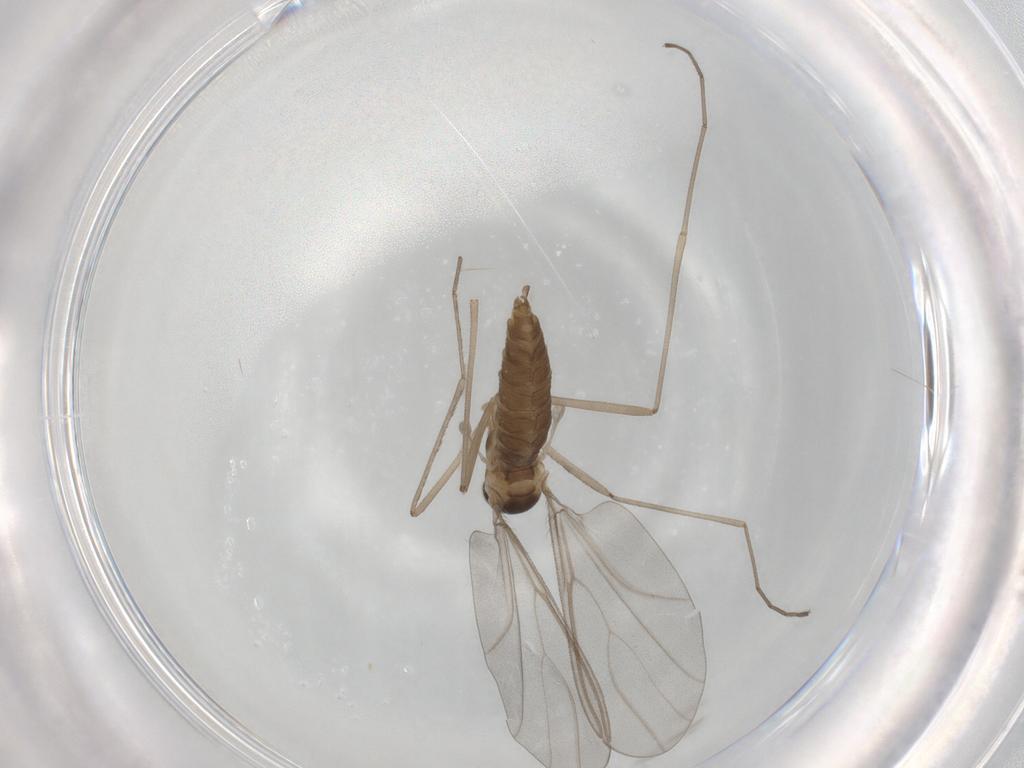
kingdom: Animalia
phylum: Arthropoda
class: Insecta
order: Diptera
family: Cecidomyiidae
